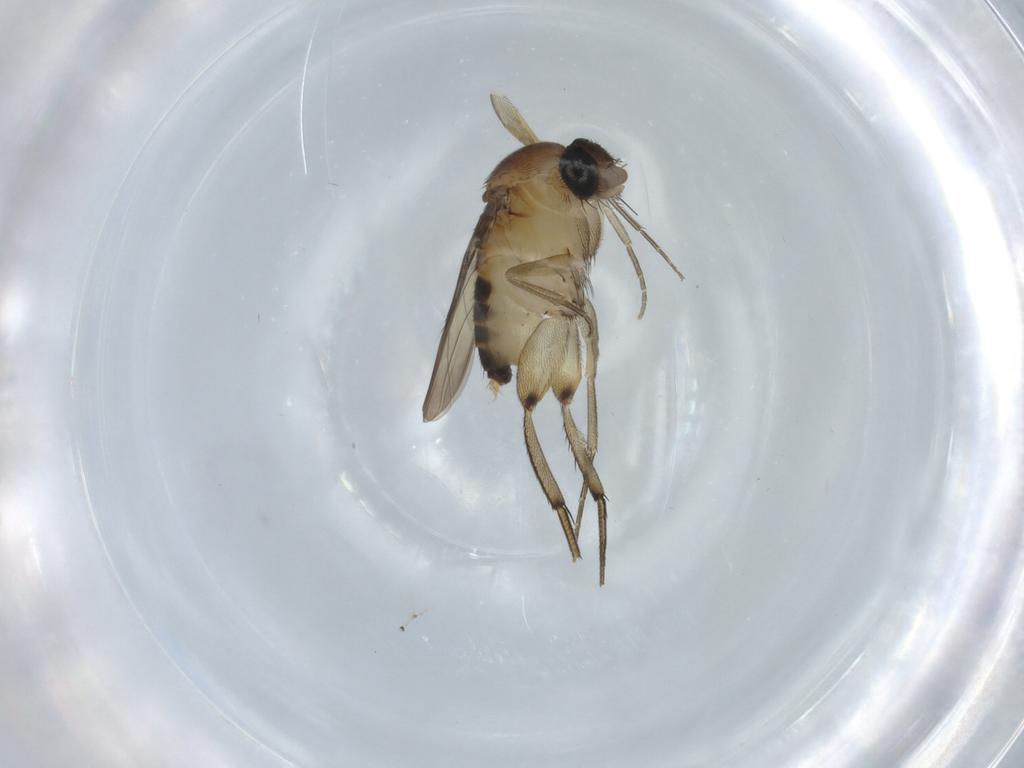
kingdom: Animalia
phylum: Arthropoda
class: Insecta
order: Diptera
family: Phoridae
